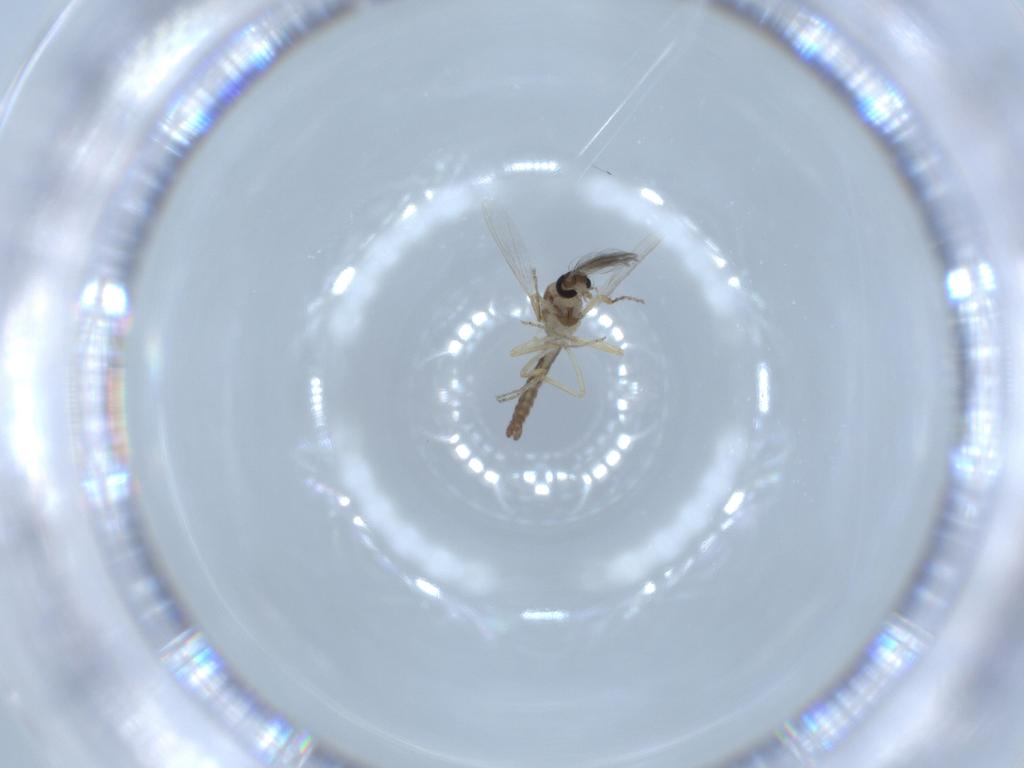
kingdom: Animalia
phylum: Arthropoda
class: Insecta
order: Diptera
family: Ceratopogonidae
